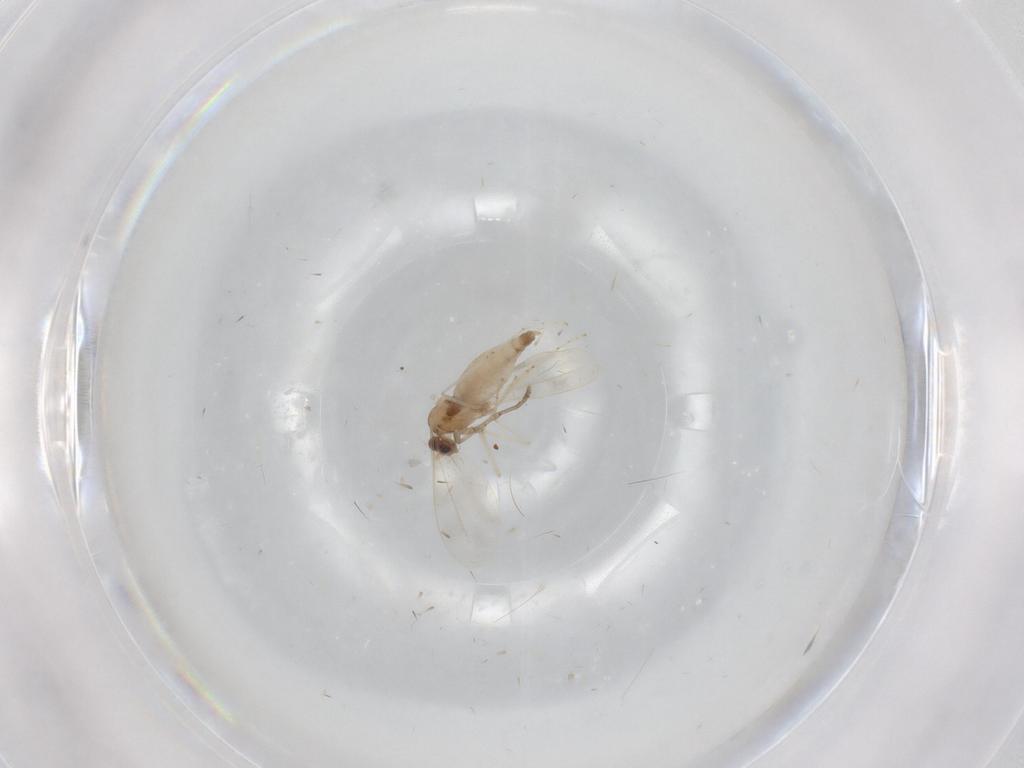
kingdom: Animalia
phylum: Arthropoda
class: Insecta
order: Diptera
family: Cecidomyiidae
